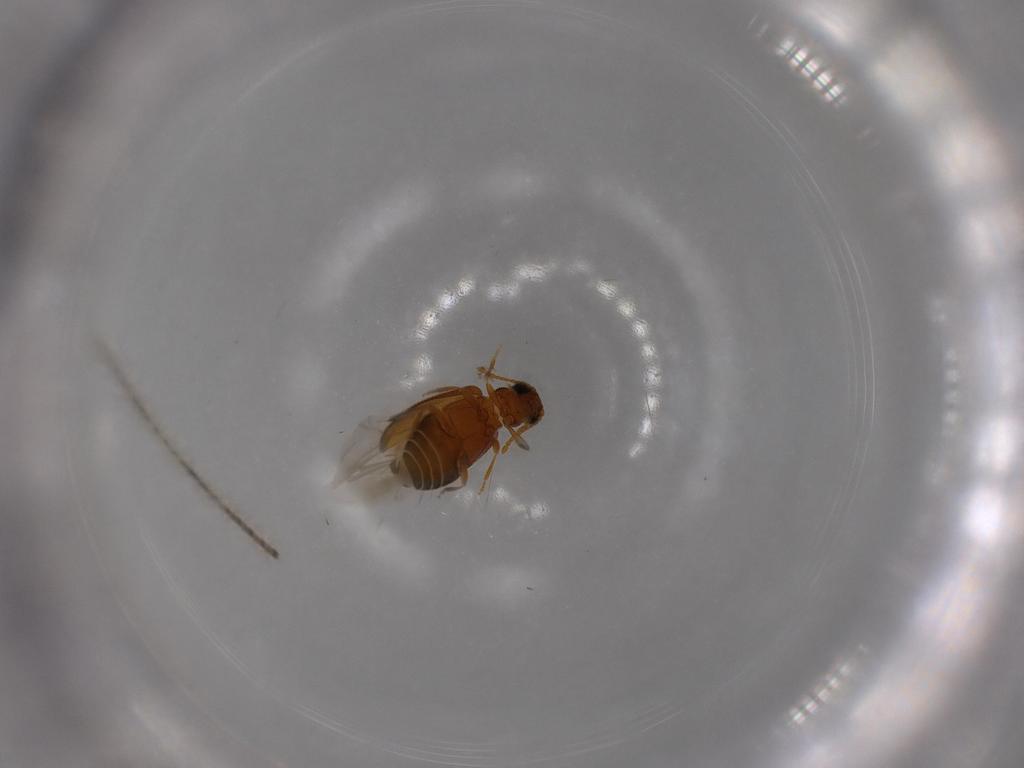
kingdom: Animalia
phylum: Arthropoda
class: Insecta
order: Coleoptera
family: Aderidae
